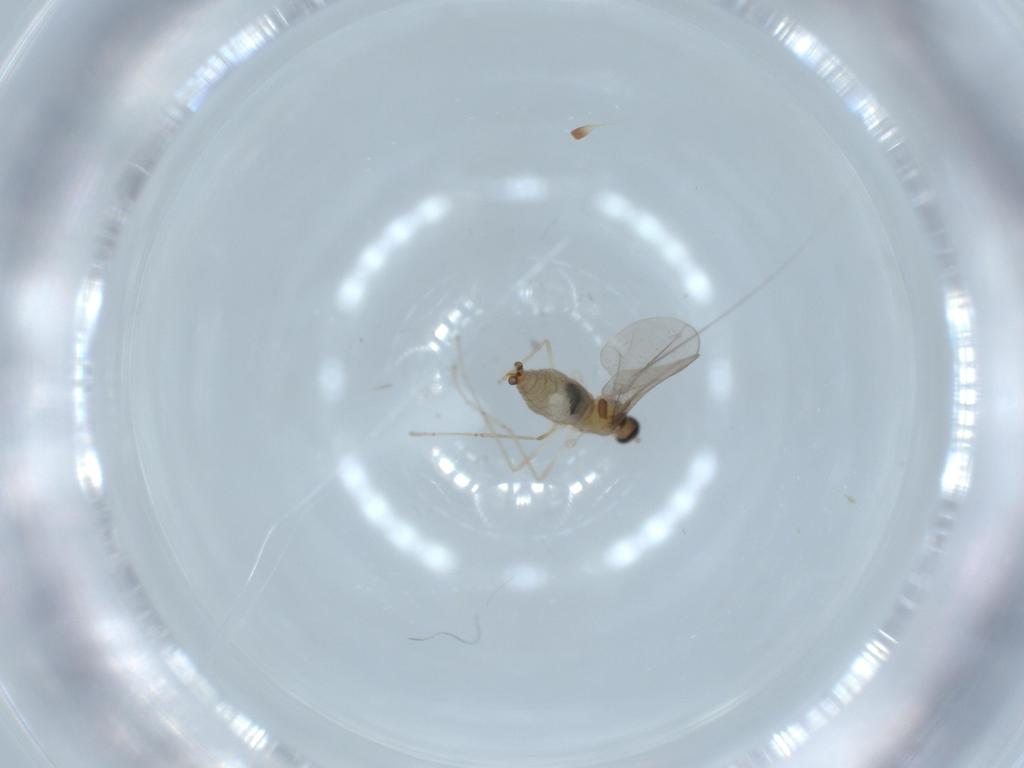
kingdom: Animalia
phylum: Arthropoda
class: Insecta
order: Diptera
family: Cecidomyiidae
